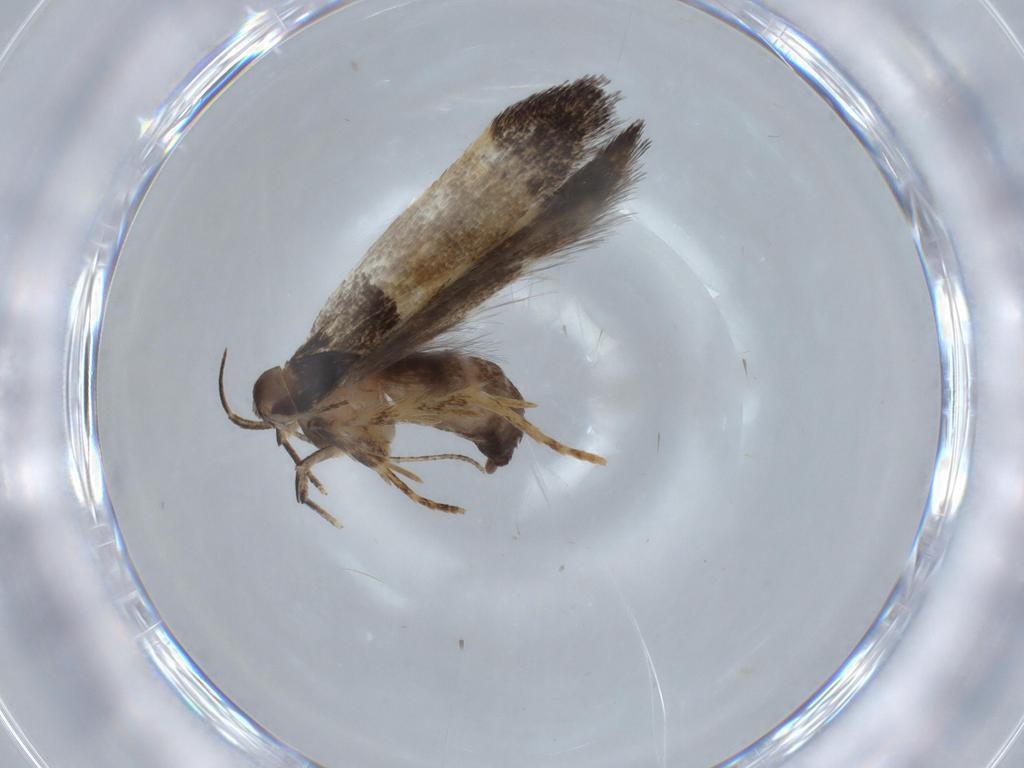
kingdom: Animalia
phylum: Arthropoda
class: Insecta
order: Lepidoptera
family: Cosmopterigidae
